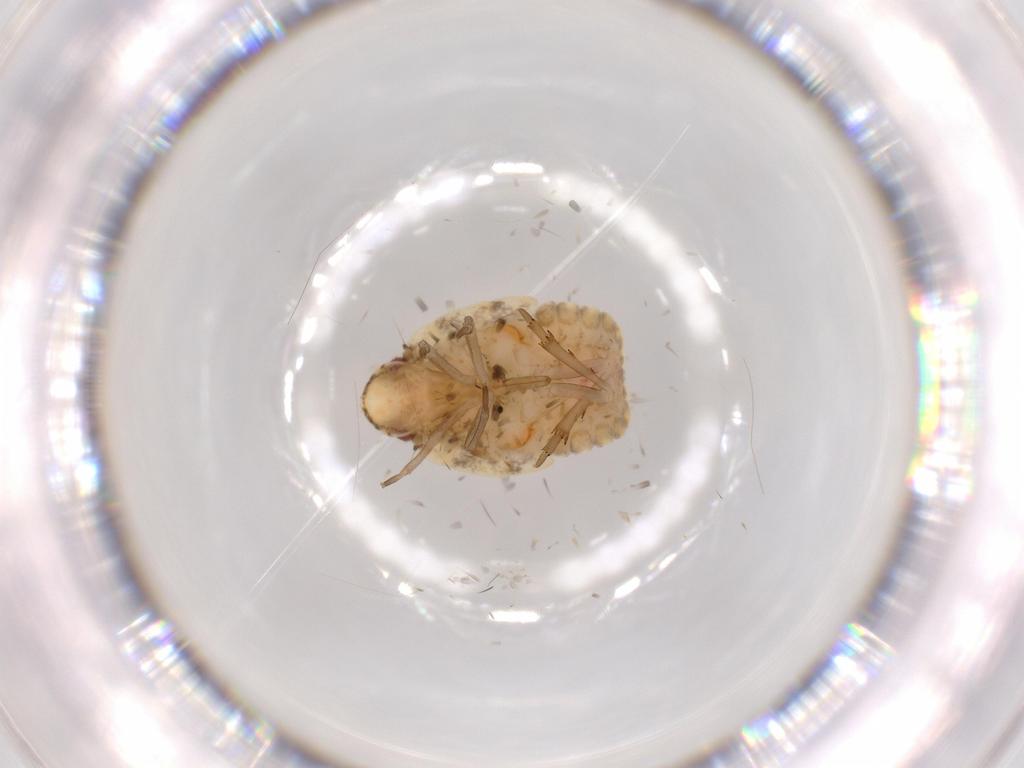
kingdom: Animalia
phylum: Arthropoda
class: Insecta
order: Hemiptera
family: Flatidae
